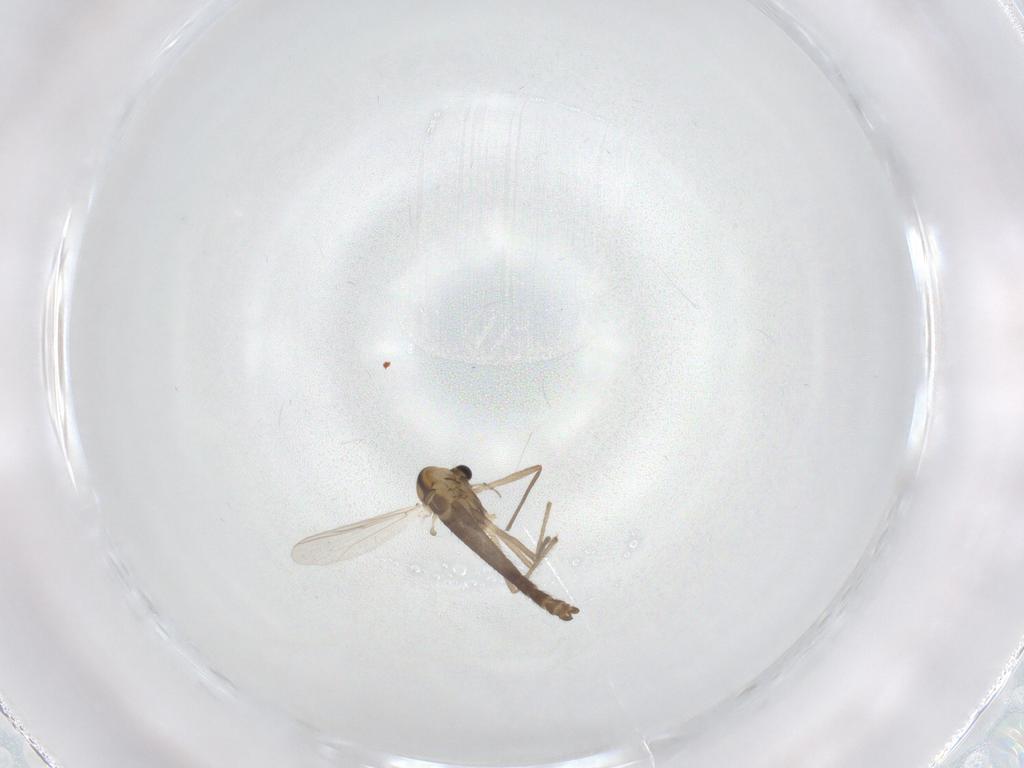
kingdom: Animalia
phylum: Arthropoda
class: Insecta
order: Diptera
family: Chironomidae
